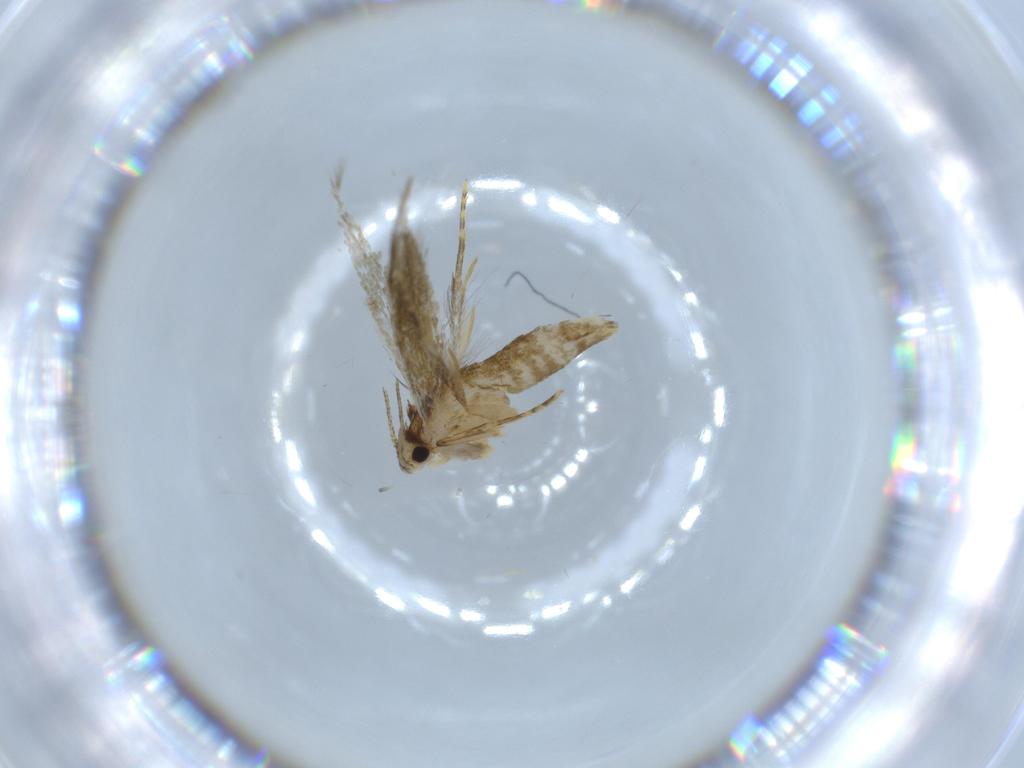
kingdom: Animalia
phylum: Arthropoda
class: Insecta
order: Lepidoptera
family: Tineidae
